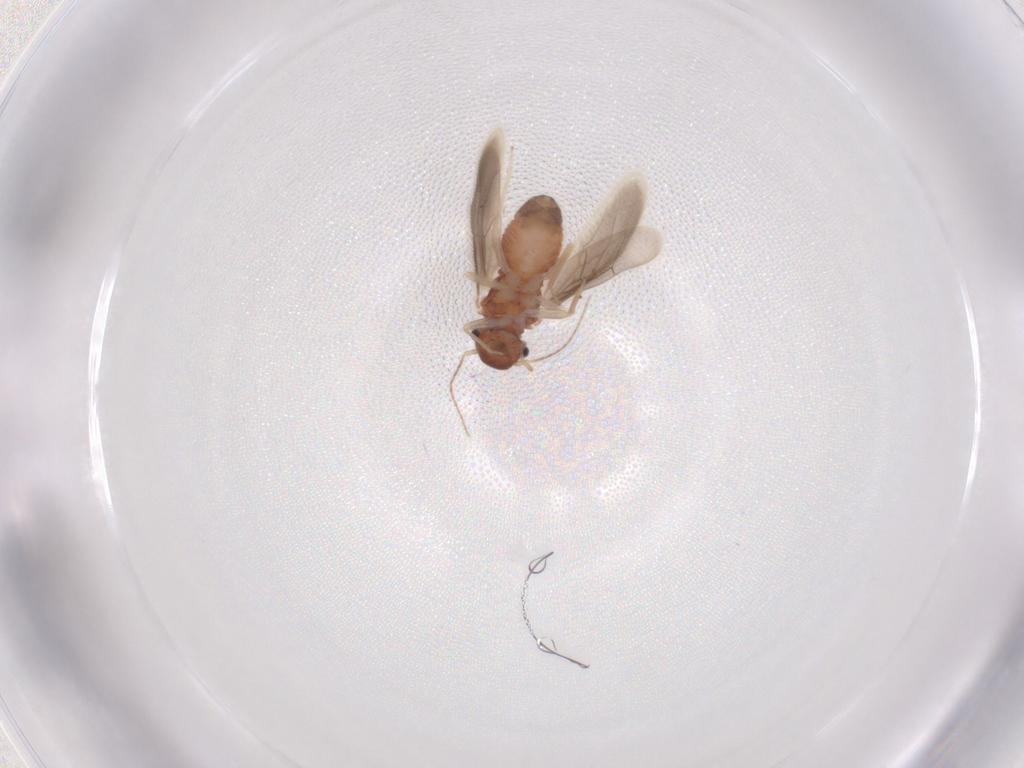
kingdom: Animalia
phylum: Arthropoda
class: Insecta
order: Psocodea
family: Archipsocidae
